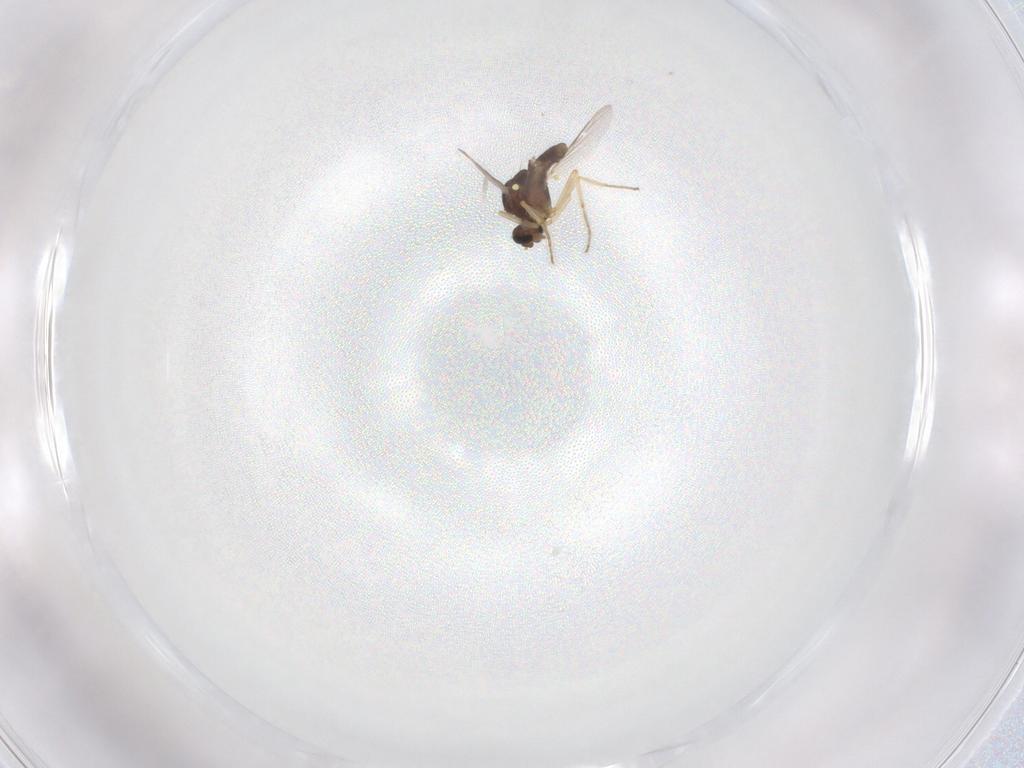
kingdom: Animalia
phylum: Arthropoda
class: Insecta
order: Diptera
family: Ceratopogonidae
